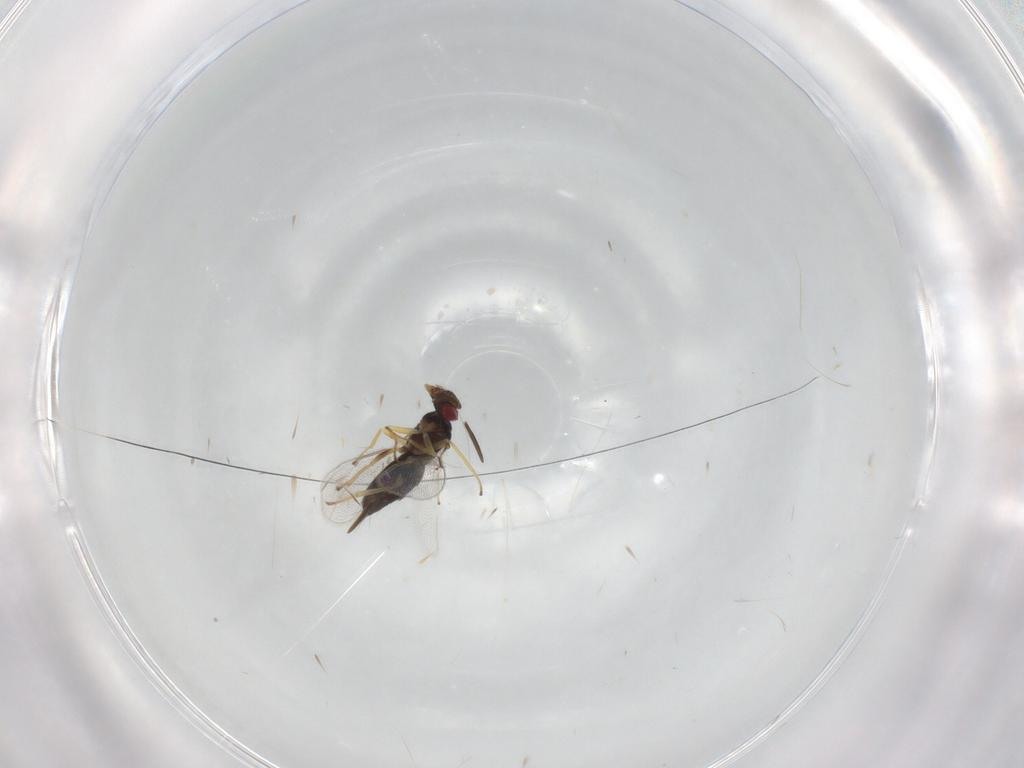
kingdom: Animalia
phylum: Arthropoda
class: Insecta
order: Hymenoptera
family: Eulophidae
